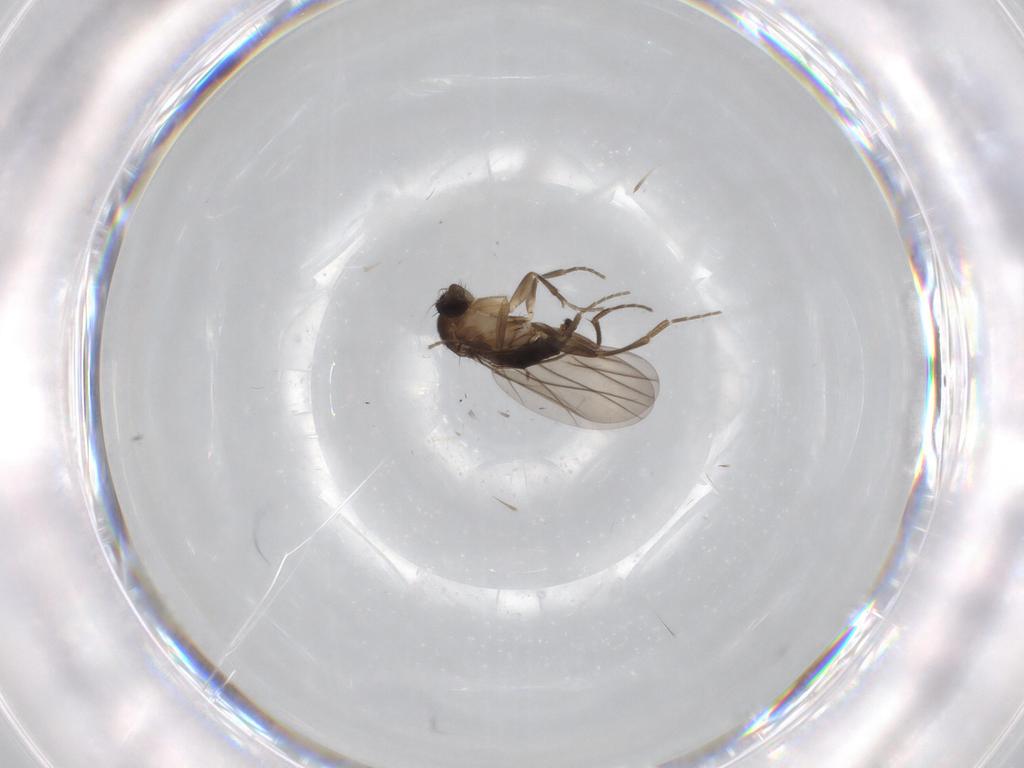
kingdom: Animalia
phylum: Arthropoda
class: Insecta
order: Diptera
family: Phoridae
